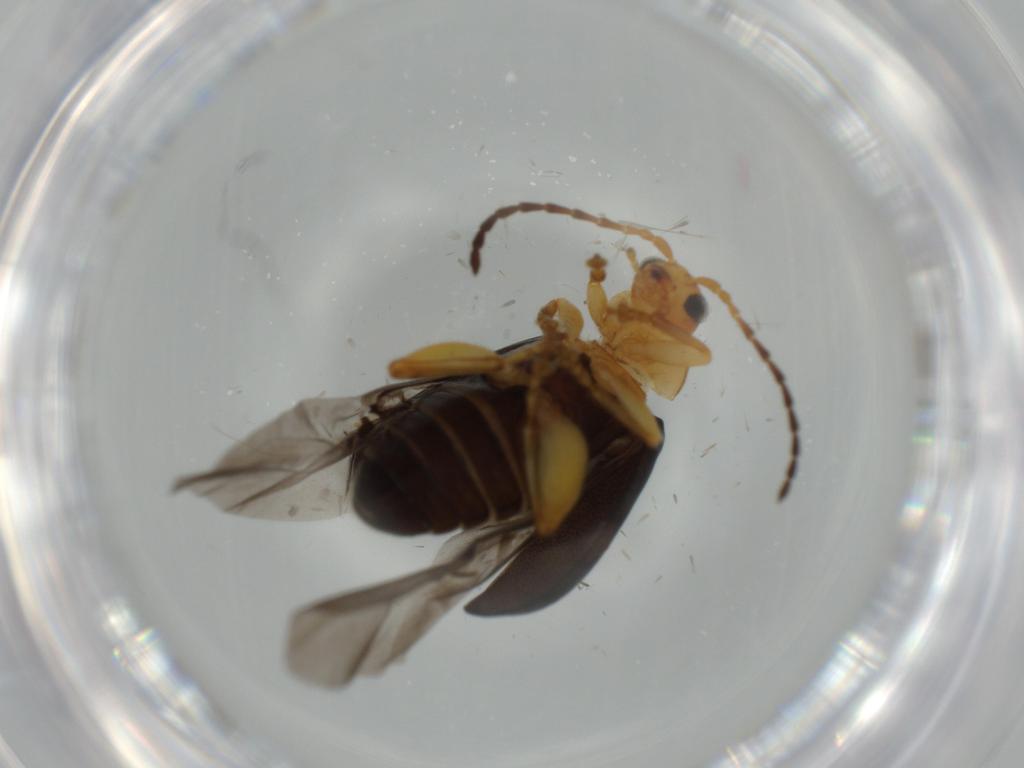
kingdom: Animalia
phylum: Arthropoda
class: Insecta
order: Coleoptera
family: Chrysomelidae
